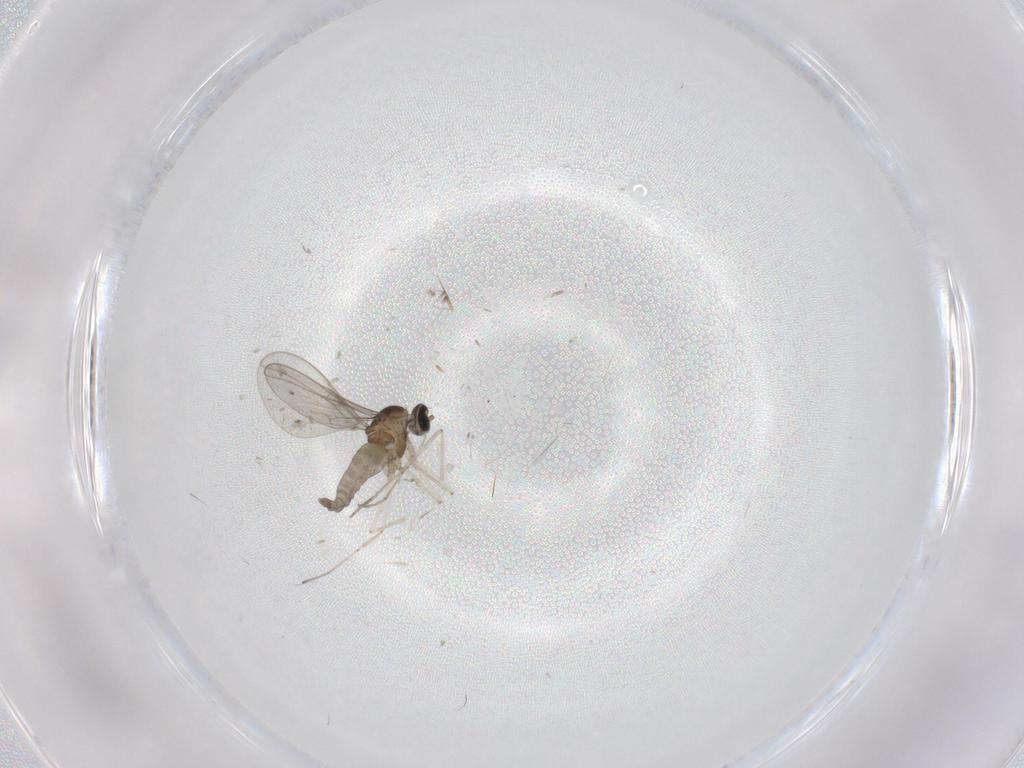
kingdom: Animalia
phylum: Arthropoda
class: Insecta
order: Diptera
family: Cecidomyiidae
